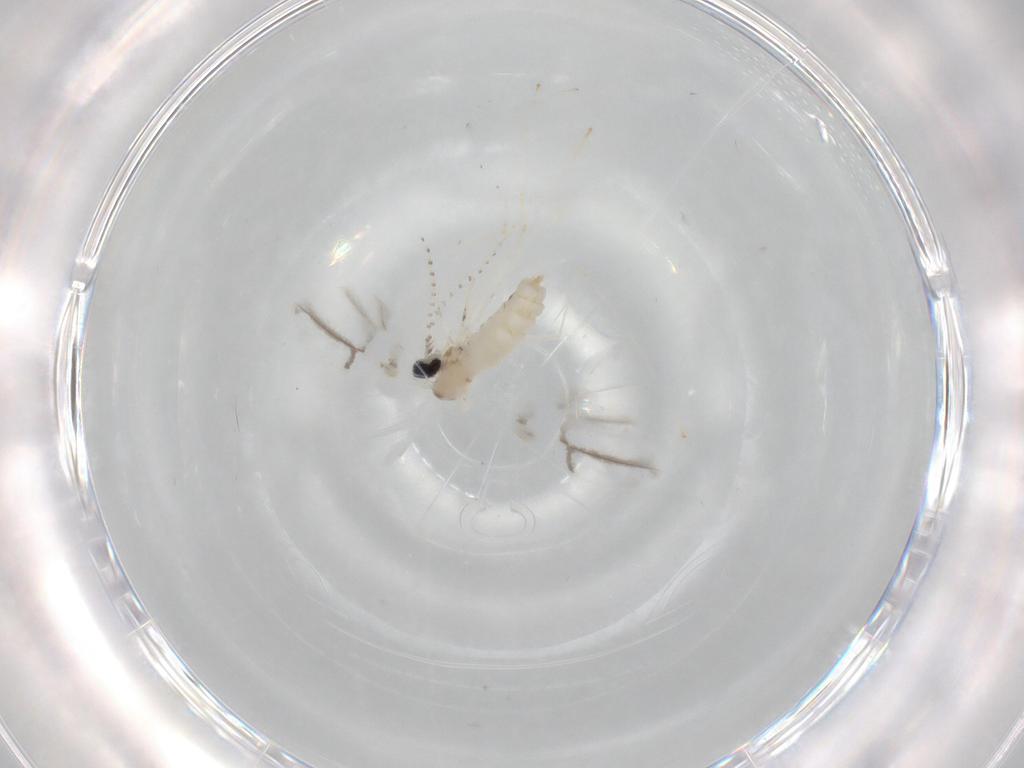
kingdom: Animalia
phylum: Arthropoda
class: Insecta
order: Diptera
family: Cecidomyiidae
